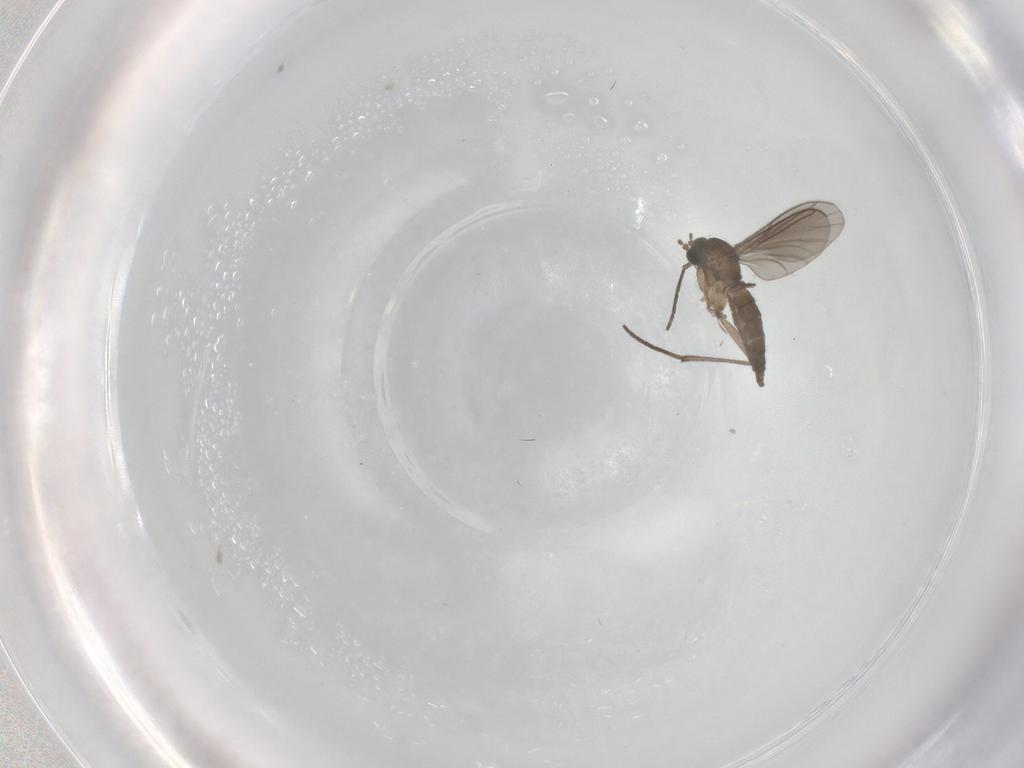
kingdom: Animalia
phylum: Arthropoda
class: Insecta
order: Diptera
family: Sciaridae
